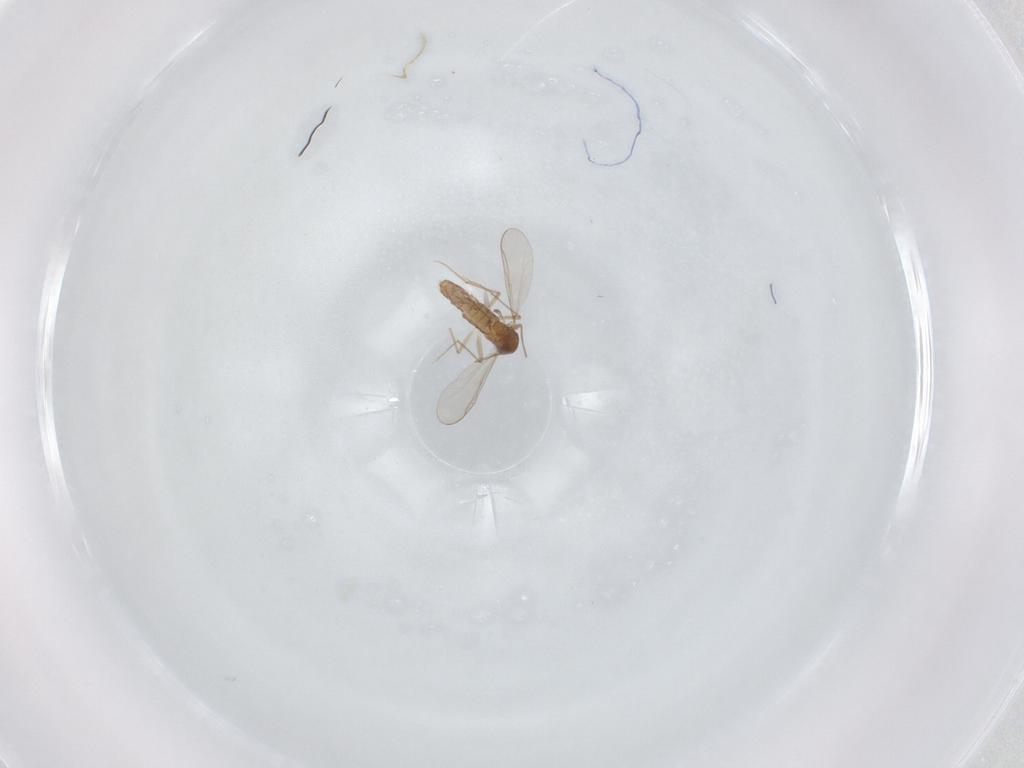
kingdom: Animalia
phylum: Arthropoda
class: Insecta
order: Diptera
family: Chironomidae
